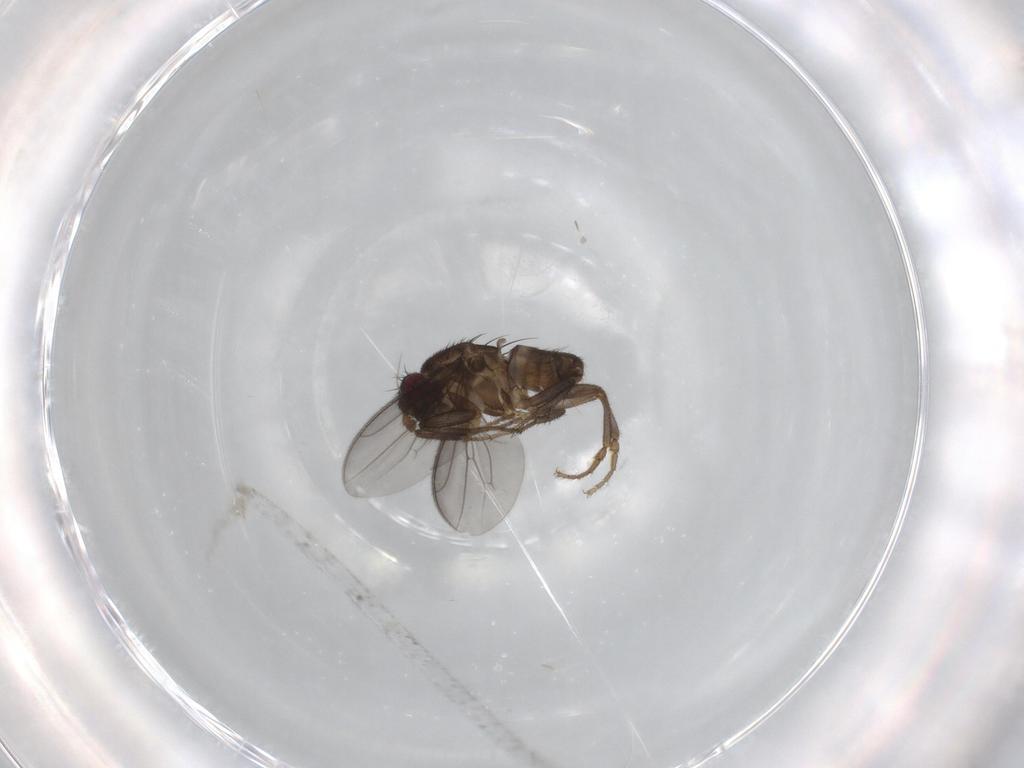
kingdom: Animalia
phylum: Arthropoda
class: Insecta
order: Diptera
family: Sphaeroceridae
